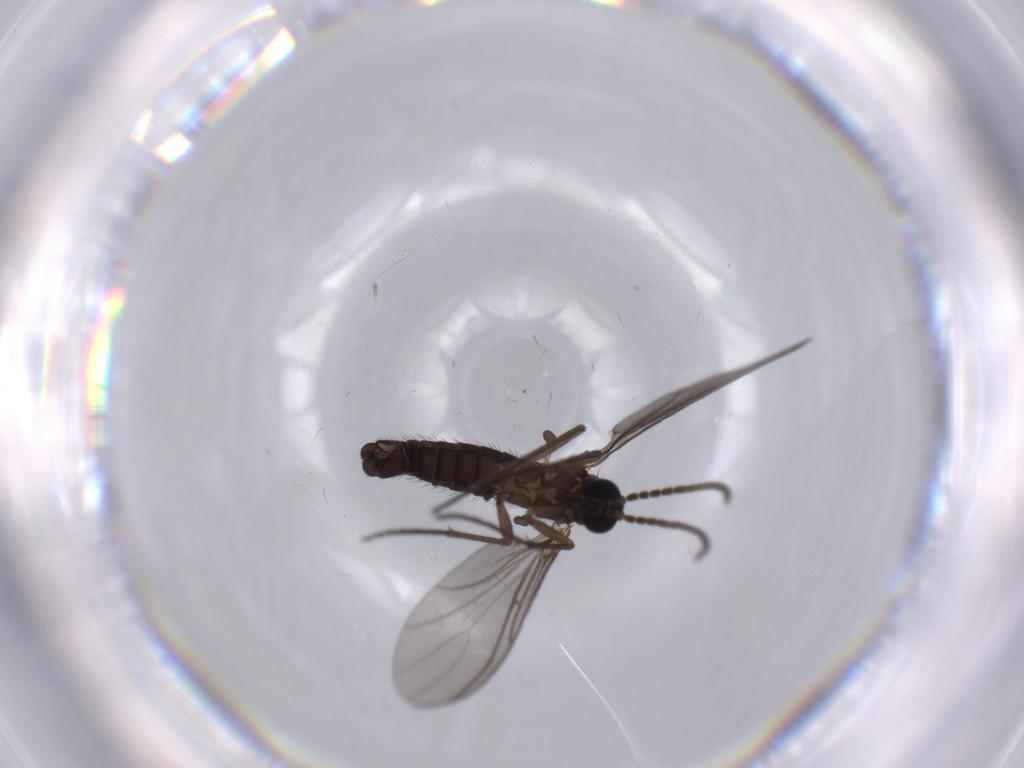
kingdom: Animalia
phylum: Arthropoda
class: Insecta
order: Diptera
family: Sciaridae
